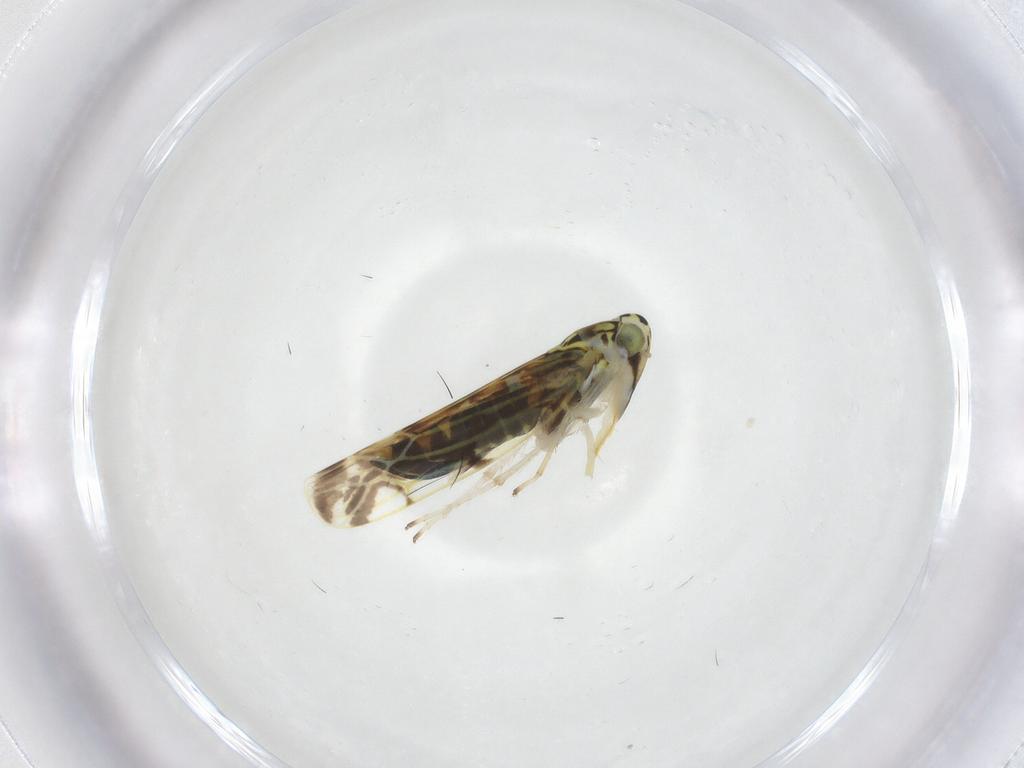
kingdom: Animalia
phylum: Arthropoda
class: Insecta
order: Hemiptera
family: Cicadellidae
